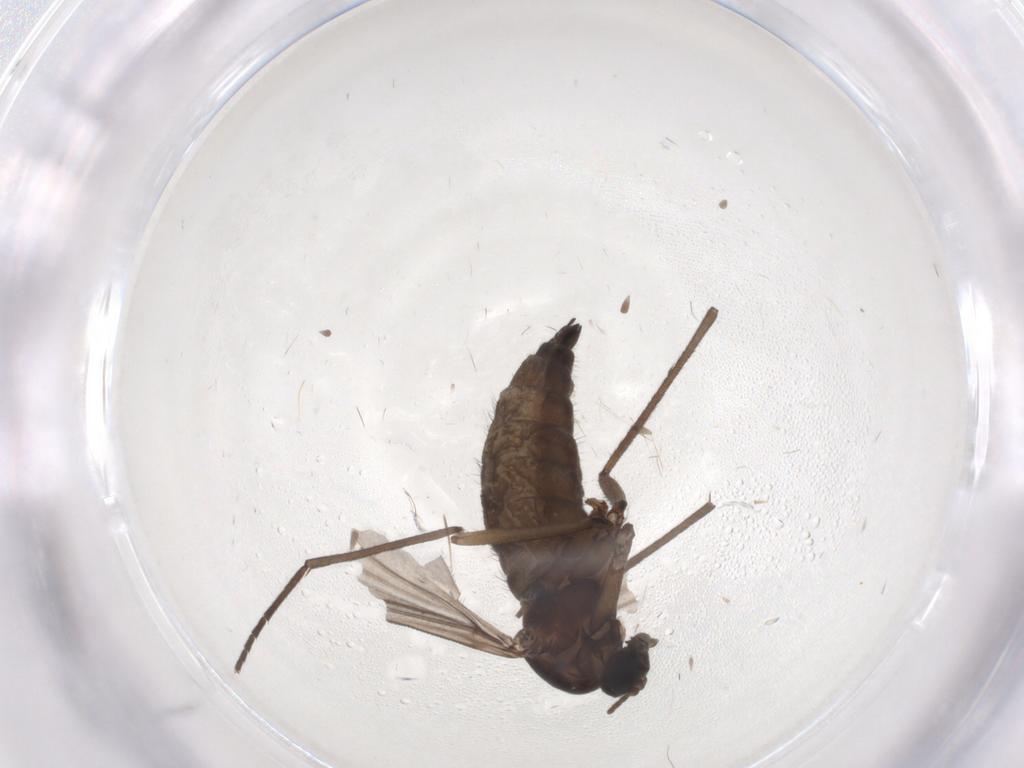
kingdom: Animalia
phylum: Arthropoda
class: Insecta
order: Diptera
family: Sciaridae
